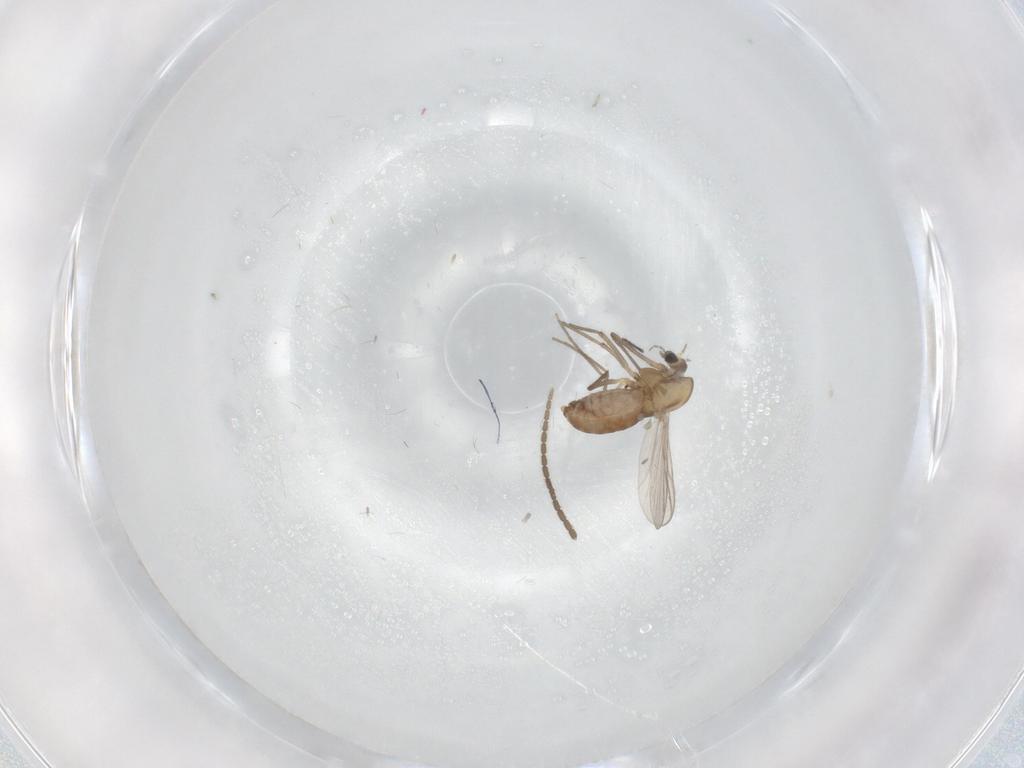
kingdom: Animalia
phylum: Arthropoda
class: Insecta
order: Diptera
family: Chironomidae
